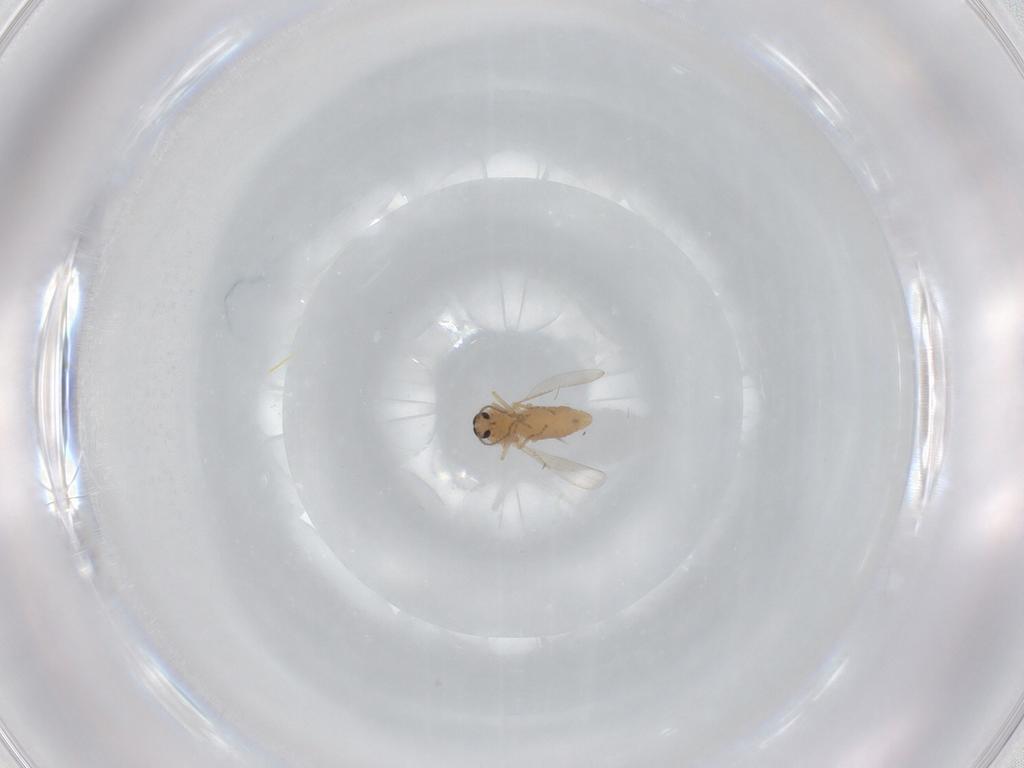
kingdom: Animalia
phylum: Arthropoda
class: Insecta
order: Diptera
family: Ceratopogonidae
